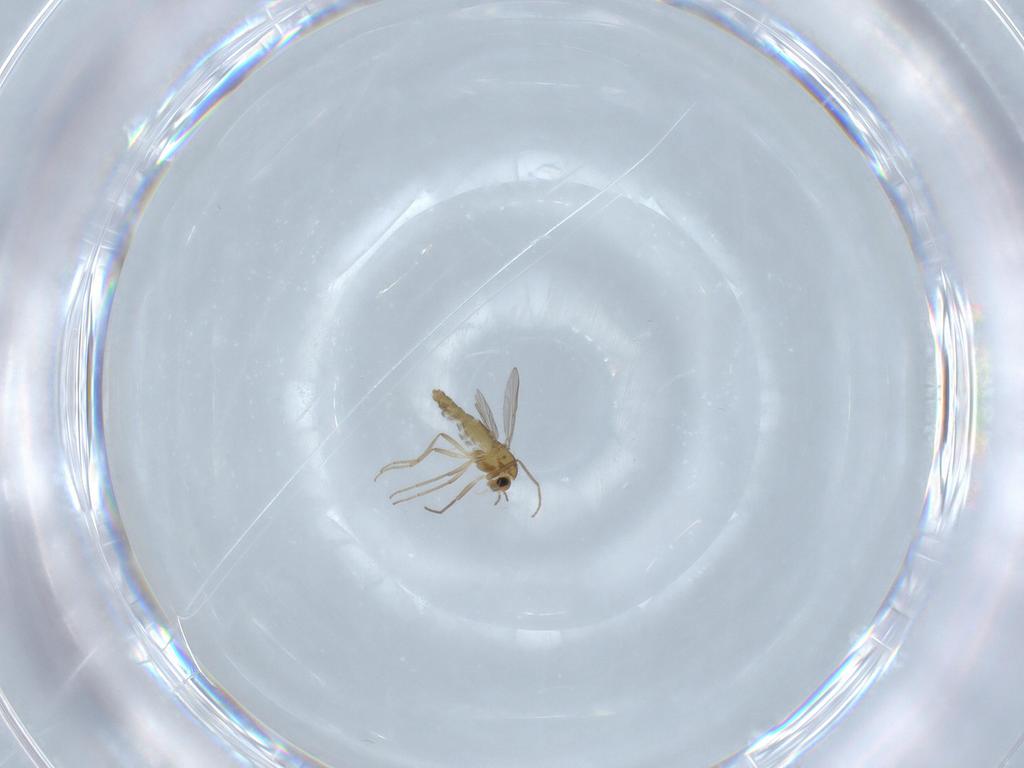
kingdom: Animalia
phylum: Arthropoda
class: Insecta
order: Diptera
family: Chironomidae
